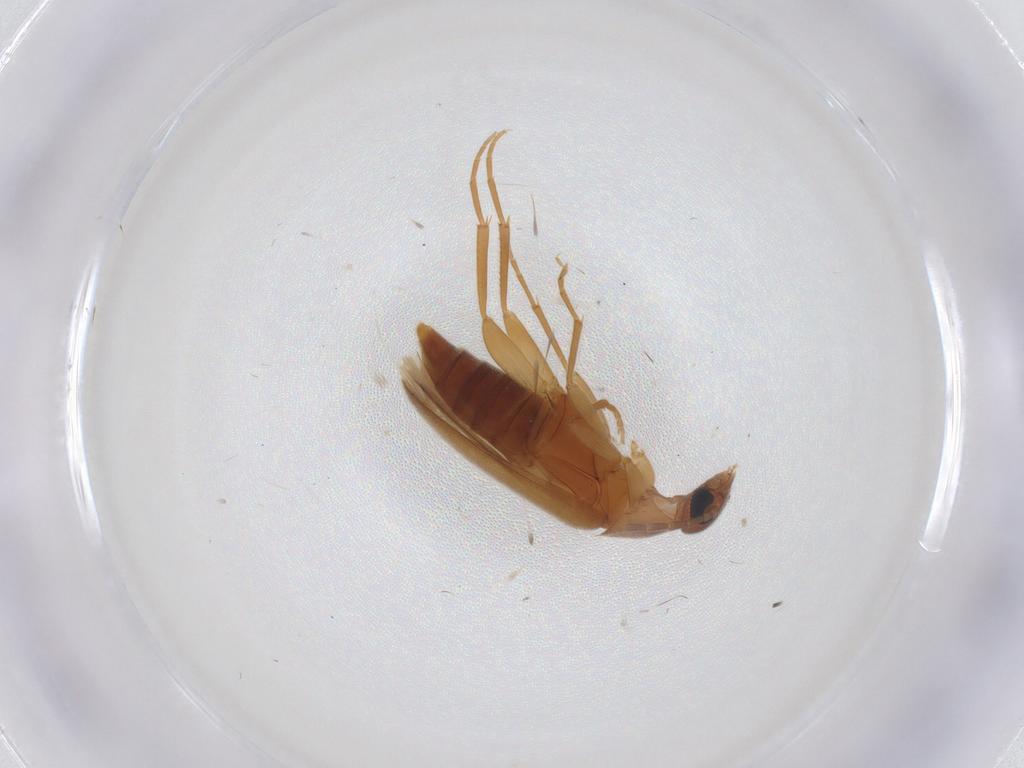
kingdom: Animalia
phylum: Arthropoda
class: Insecta
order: Coleoptera
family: Scraptiidae
